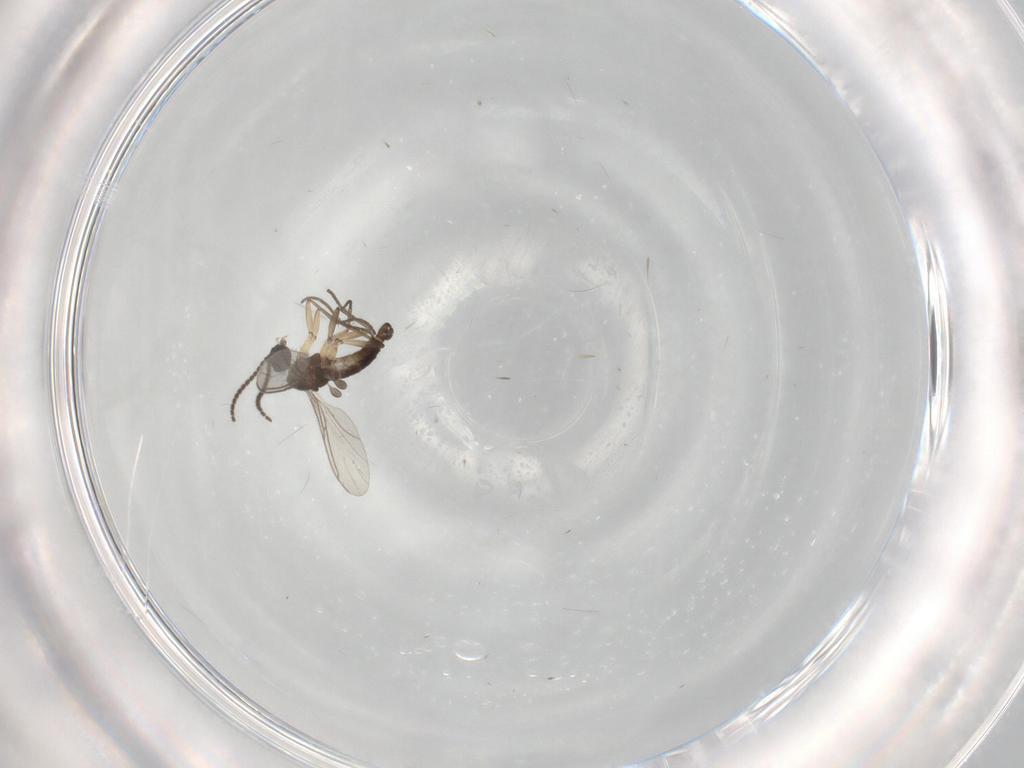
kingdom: Animalia
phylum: Arthropoda
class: Insecta
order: Diptera
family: Sciaridae
